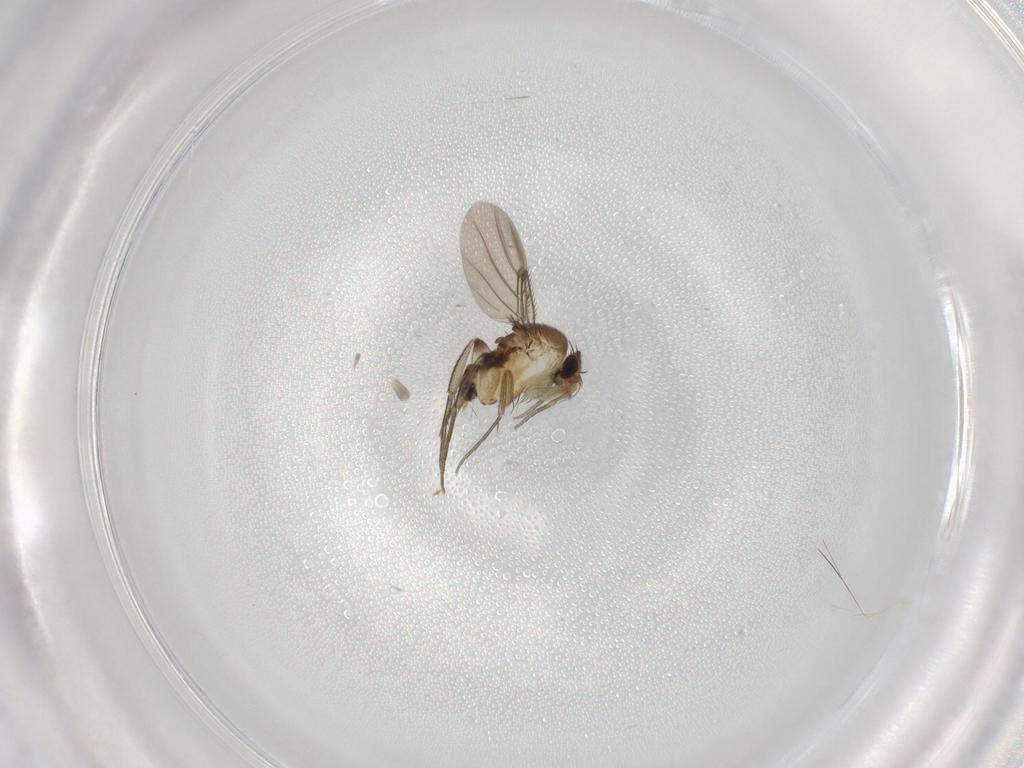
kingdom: Animalia
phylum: Arthropoda
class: Insecta
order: Diptera
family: Phoridae
